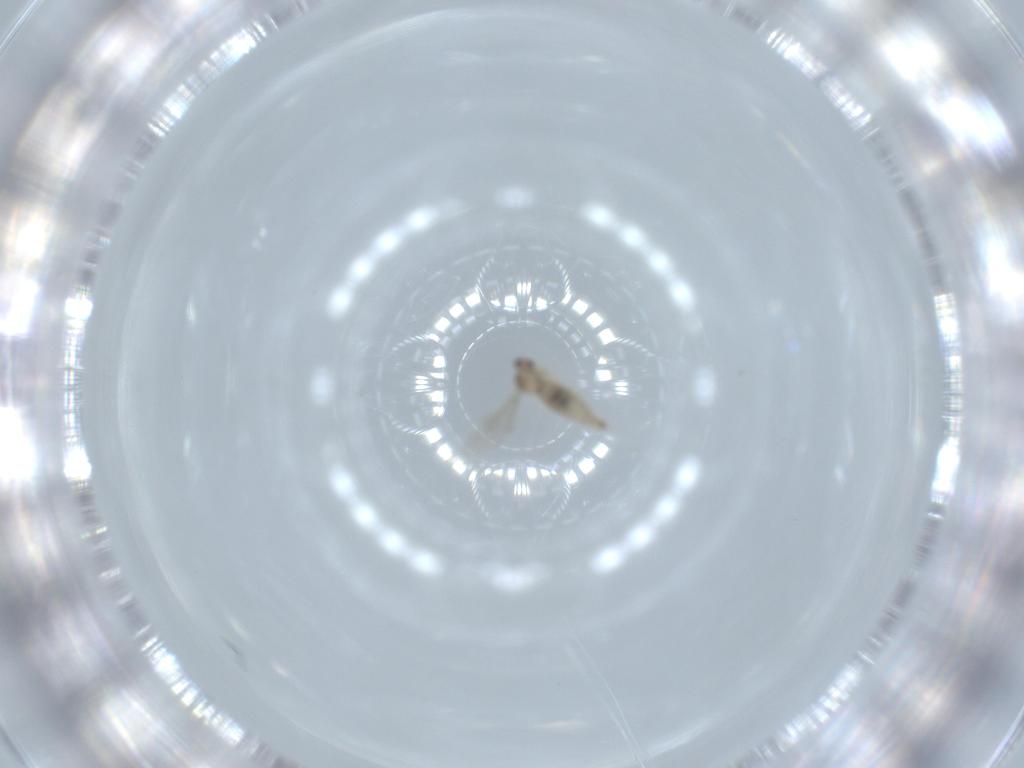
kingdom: Animalia
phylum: Arthropoda
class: Insecta
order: Diptera
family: Cecidomyiidae
